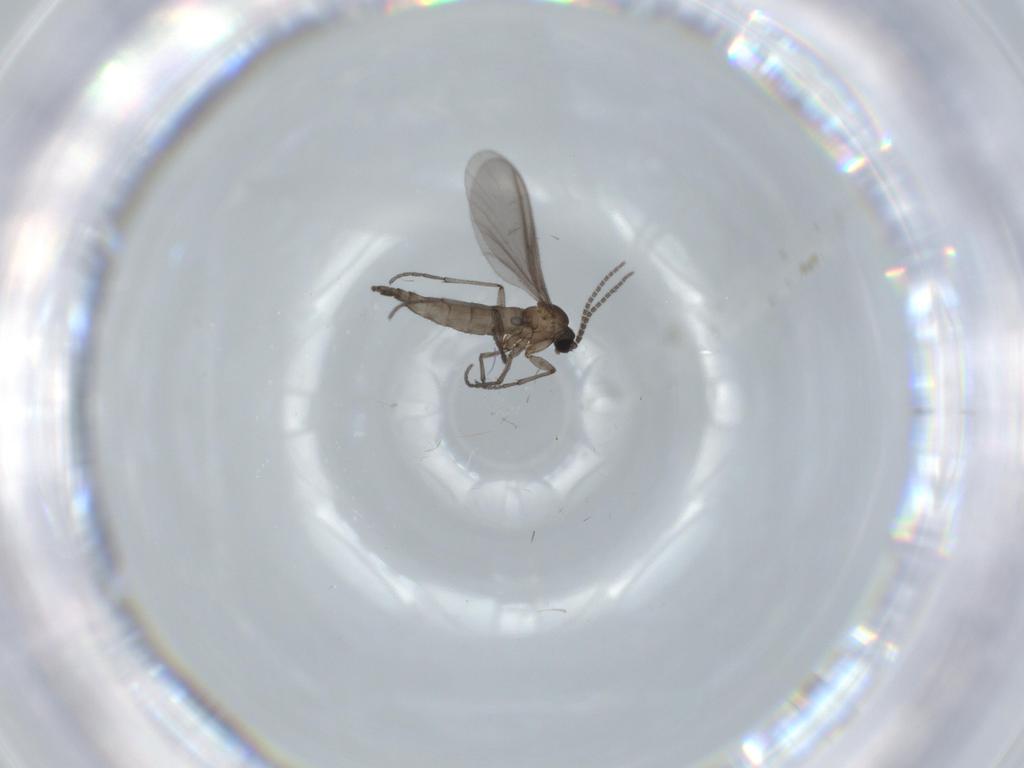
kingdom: Animalia
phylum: Arthropoda
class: Insecta
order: Diptera
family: Sciaridae
